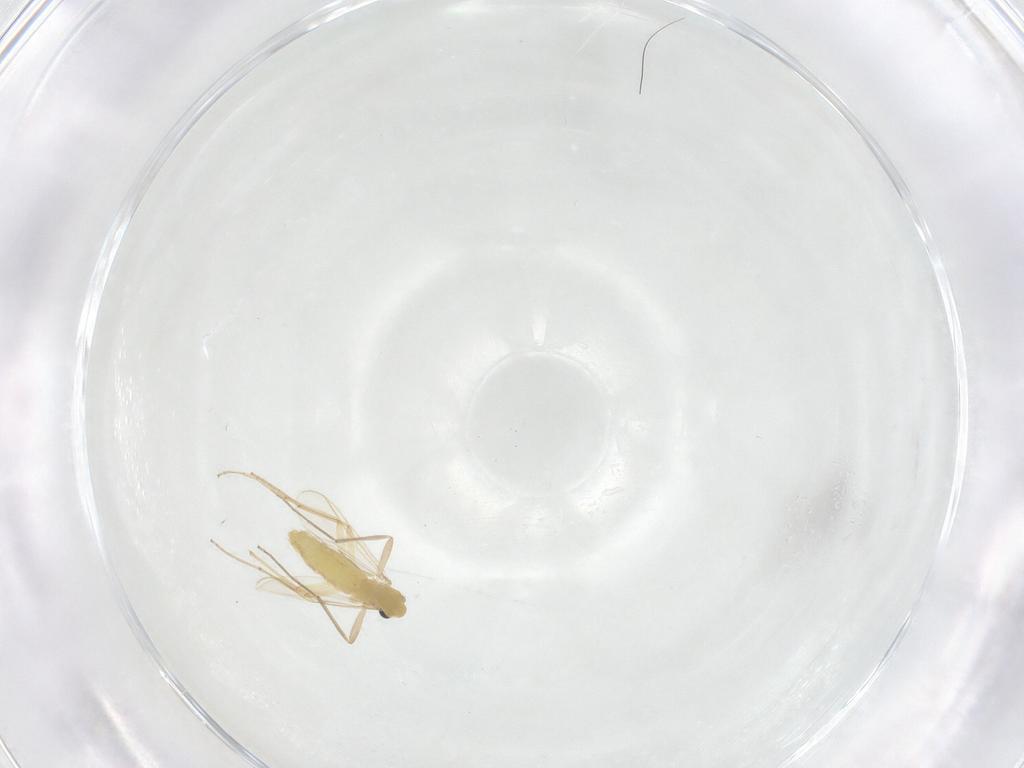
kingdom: Animalia
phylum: Arthropoda
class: Insecta
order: Diptera
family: Chironomidae
